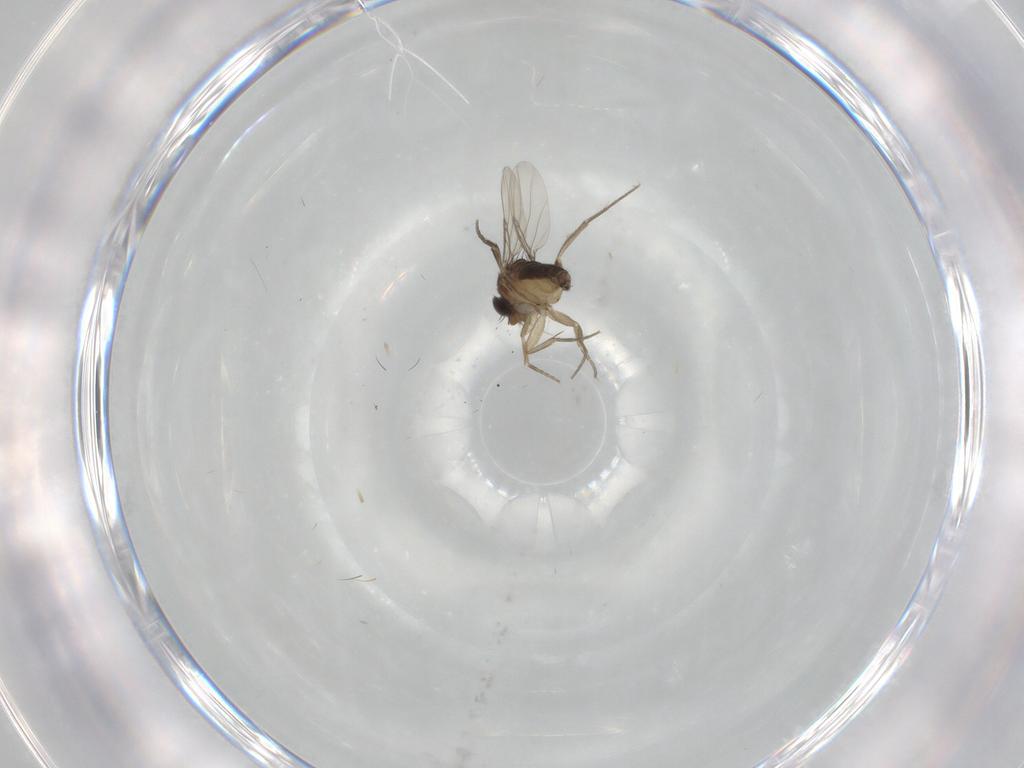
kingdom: Animalia
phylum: Arthropoda
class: Insecta
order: Diptera
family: Phoridae
